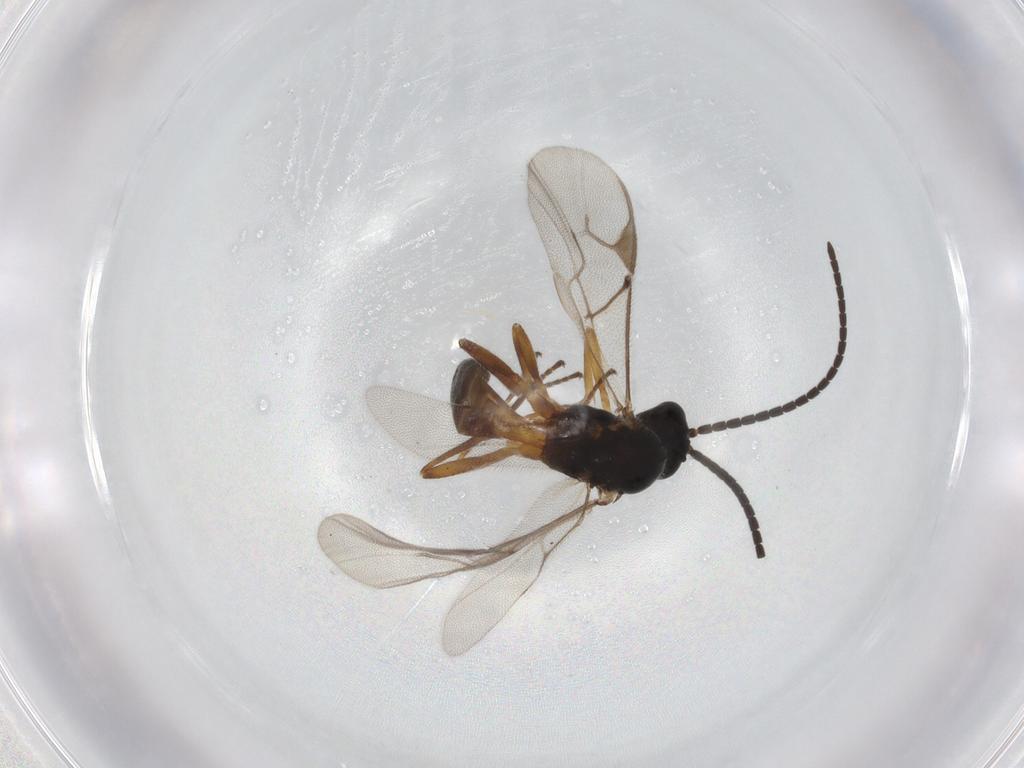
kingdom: Animalia
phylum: Arthropoda
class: Insecta
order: Hymenoptera
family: Braconidae
